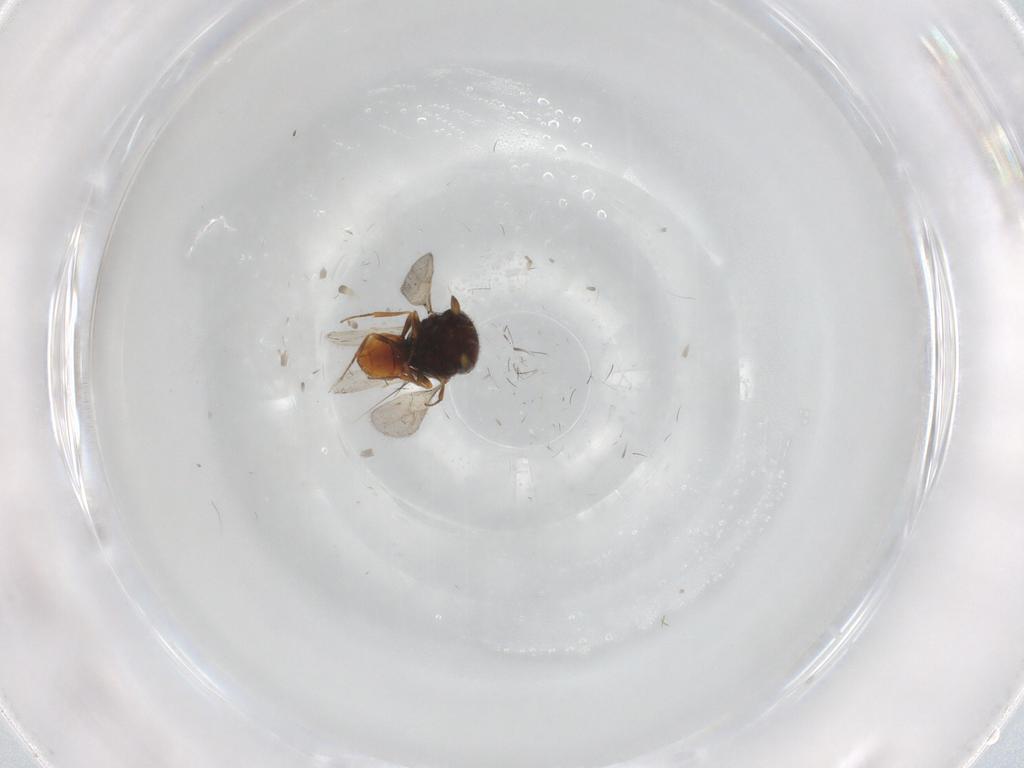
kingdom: Animalia
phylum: Arthropoda
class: Insecta
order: Hymenoptera
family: Scelionidae
